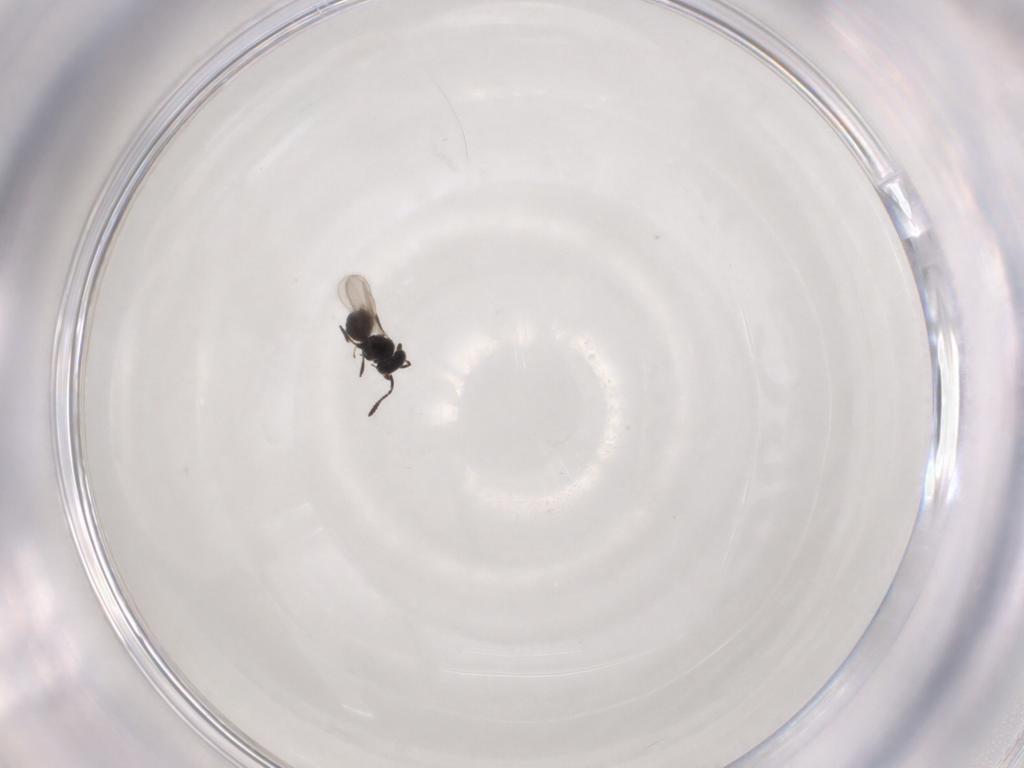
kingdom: Animalia
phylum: Arthropoda
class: Insecta
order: Hymenoptera
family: Scelionidae
